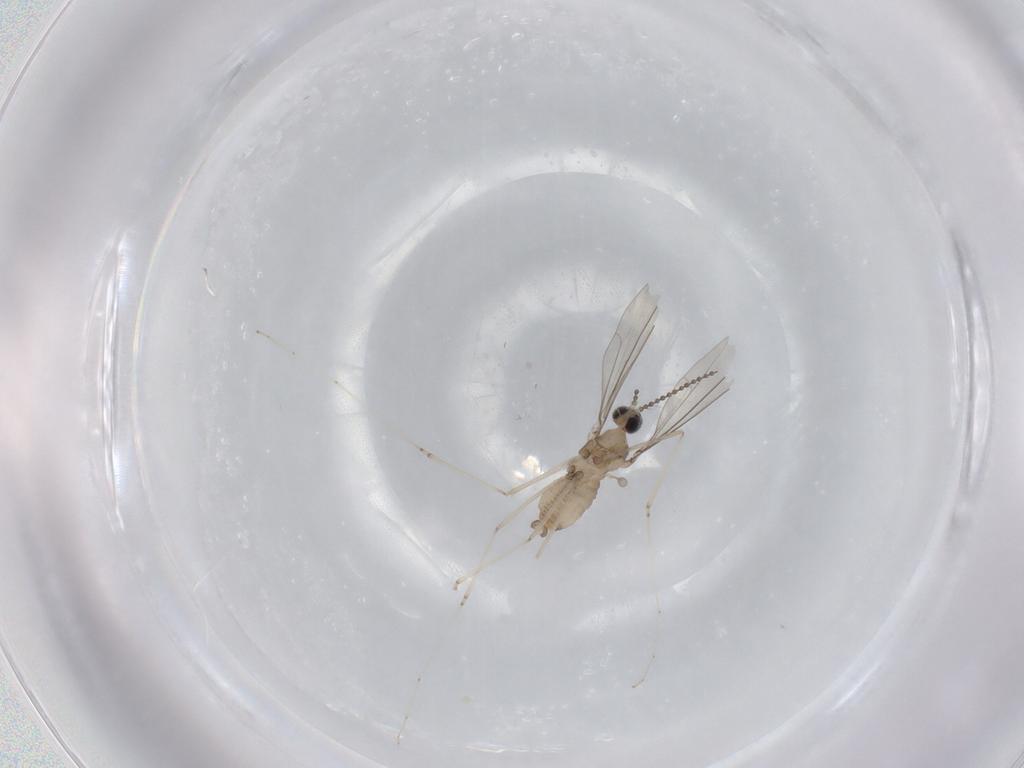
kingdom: Animalia
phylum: Arthropoda
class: Insecta
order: Diptera
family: Cecidomyiidae
